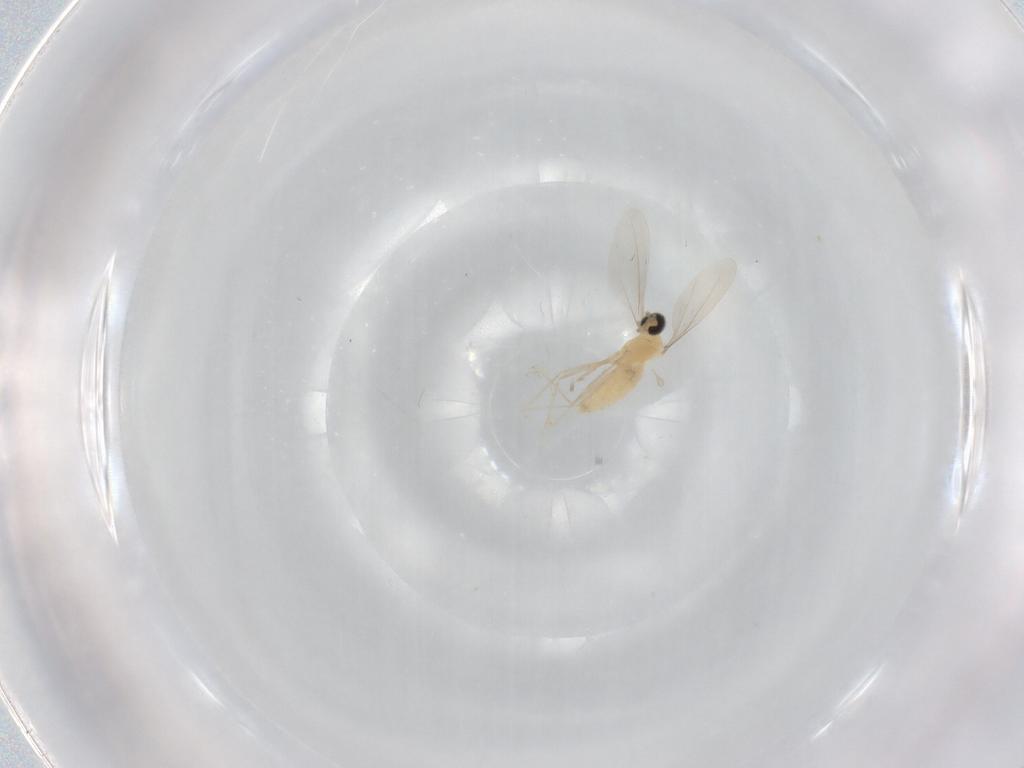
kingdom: Animalia
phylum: Arthropoda
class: Insecta
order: Diptera
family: Cecidomyiidae
